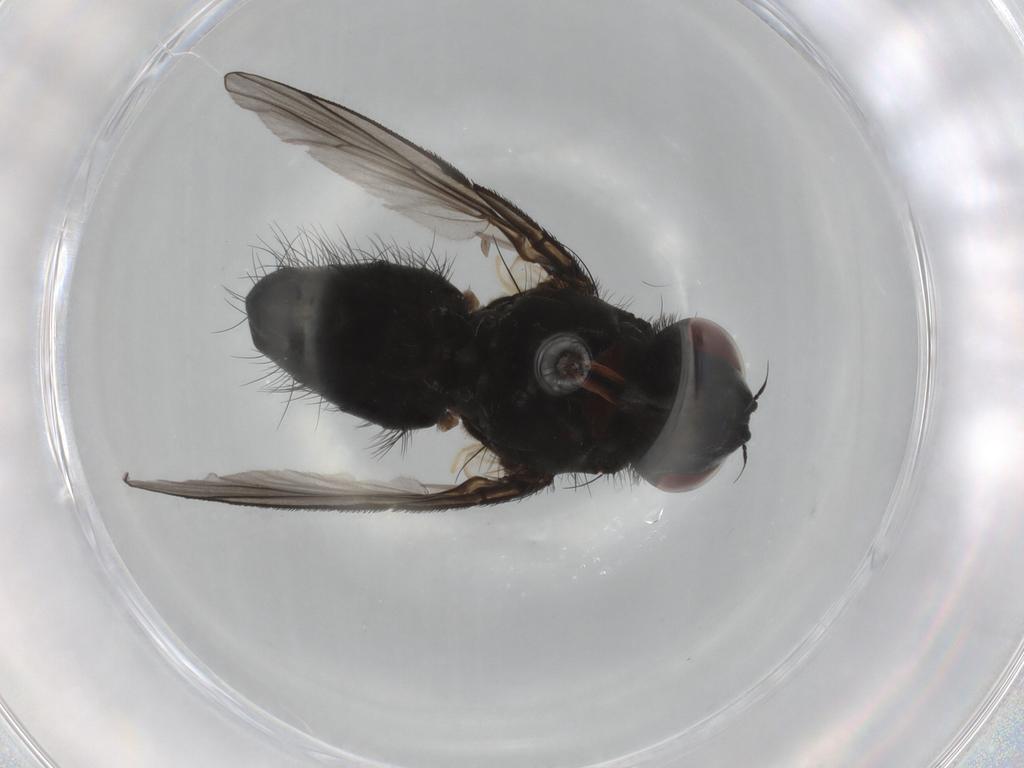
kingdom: Animalia
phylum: Arthropoda
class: Insecta
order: Diptera
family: Muscidae
